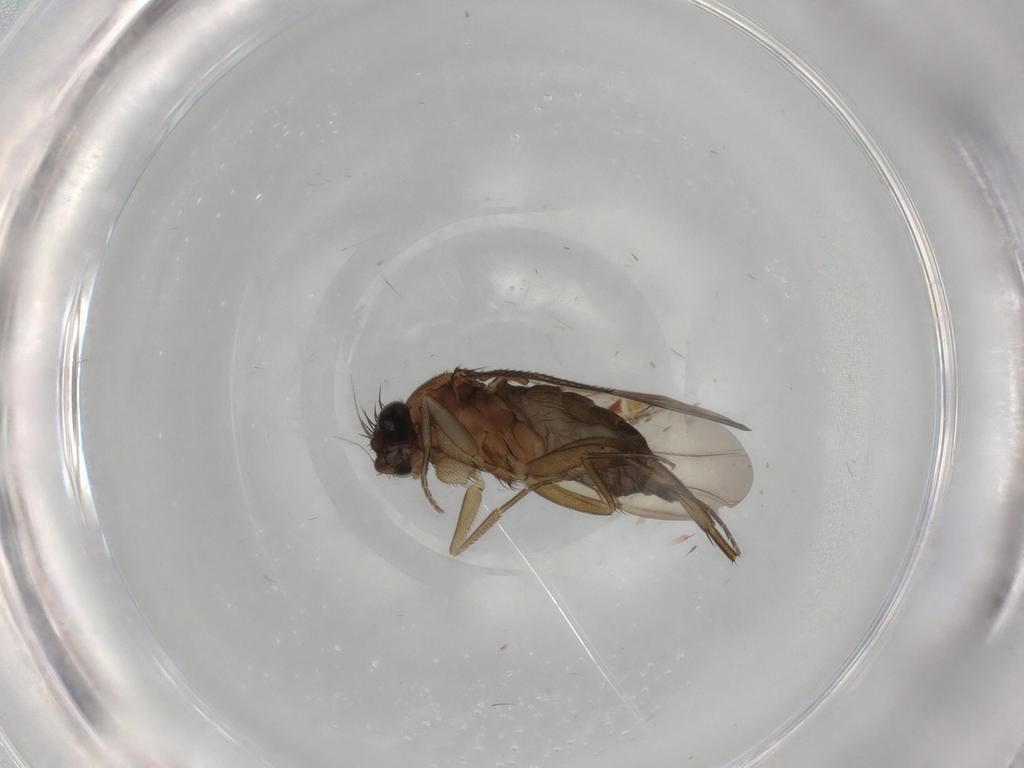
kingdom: Animalia
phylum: Arthropoda
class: Insecta
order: Diptera
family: Phoridae
